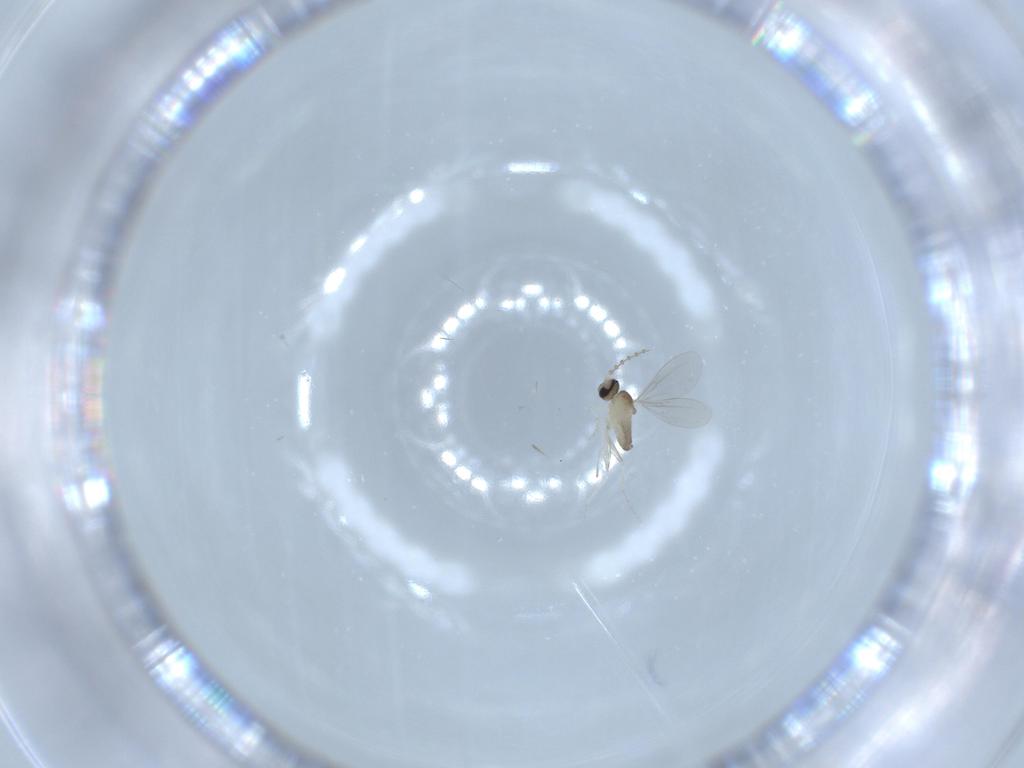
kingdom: Animalia
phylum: Arthropoda
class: Insecta
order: Diptera
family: Cecidomyiidae
